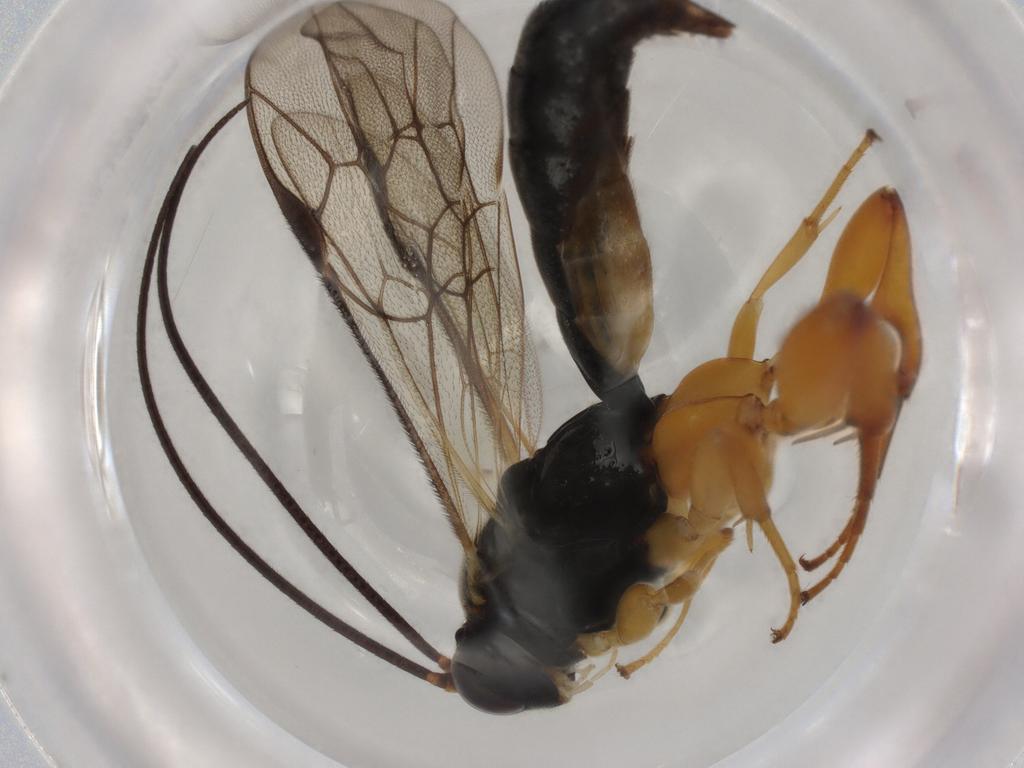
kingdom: Animalia
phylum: Arthropoda
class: Insecta
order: Hymenoptera
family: Ichneumonidae
